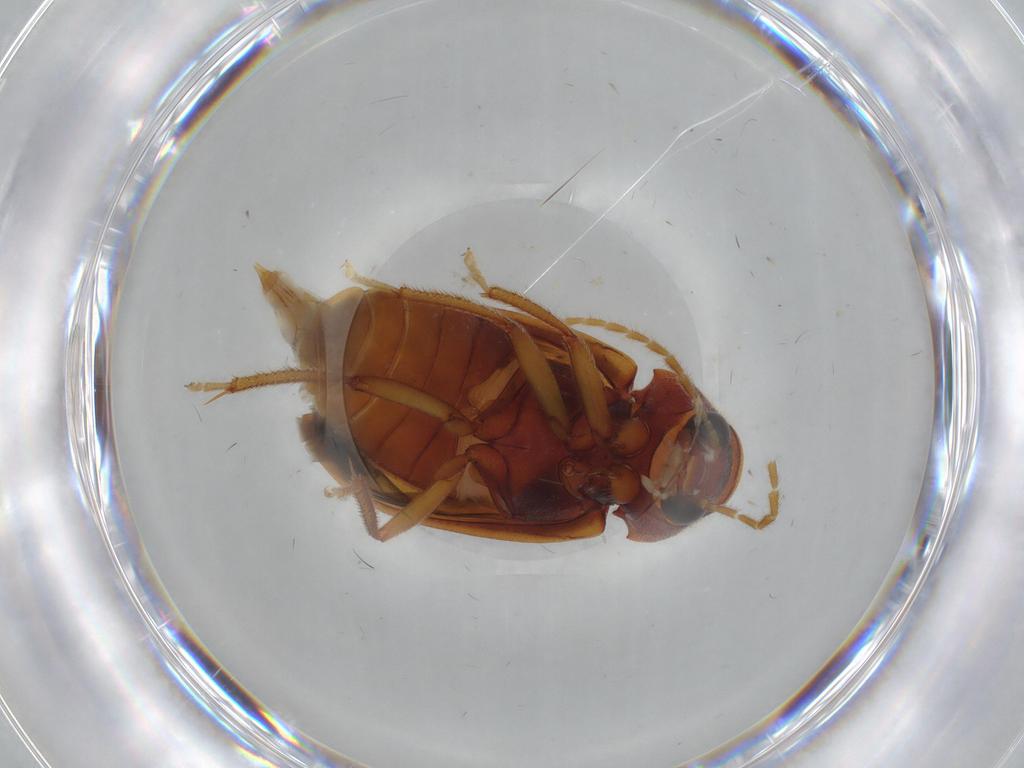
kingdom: Animalia
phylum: Arthropoda
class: Insecta
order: Coleoptera
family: Ptilodactylidae
